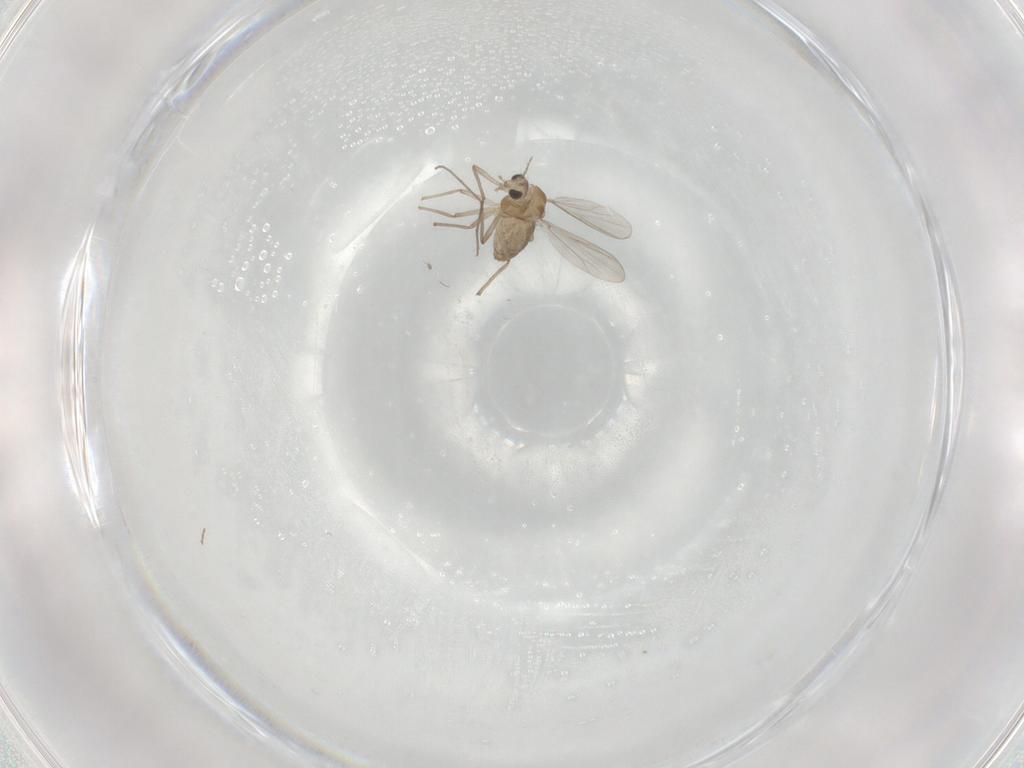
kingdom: Animalia
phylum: Arthropoda
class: Insecta
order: Diptera
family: Chironomidae
